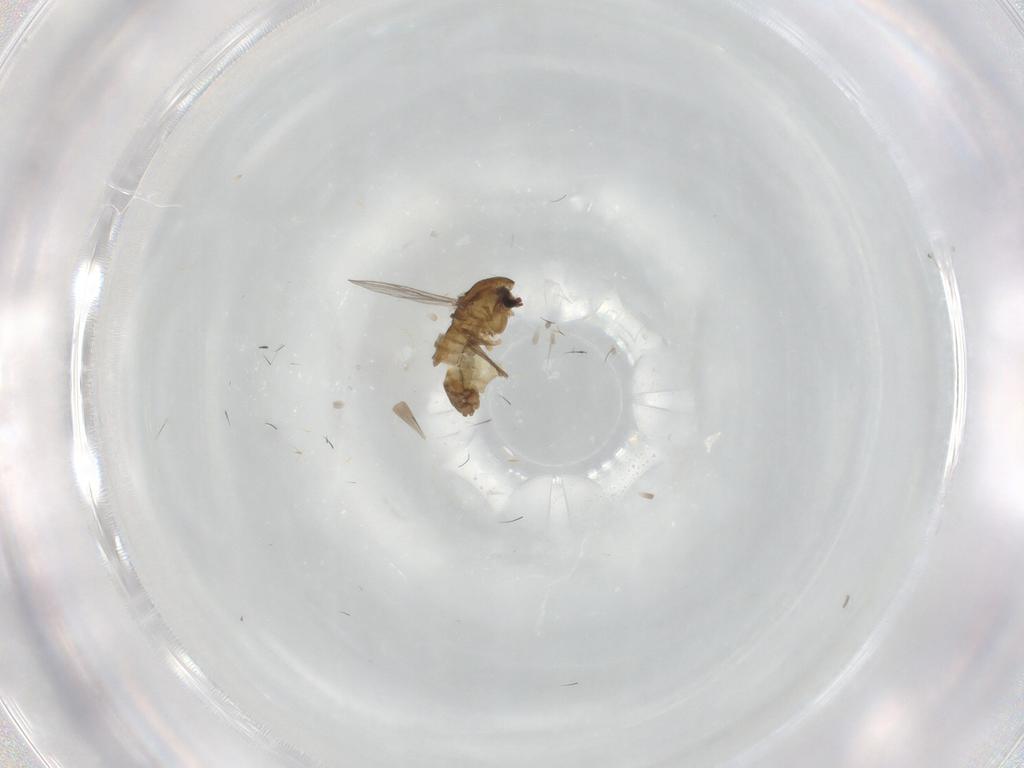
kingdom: Animalia
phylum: Arthropoda
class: Insecta
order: Diptera
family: Chironomidae
